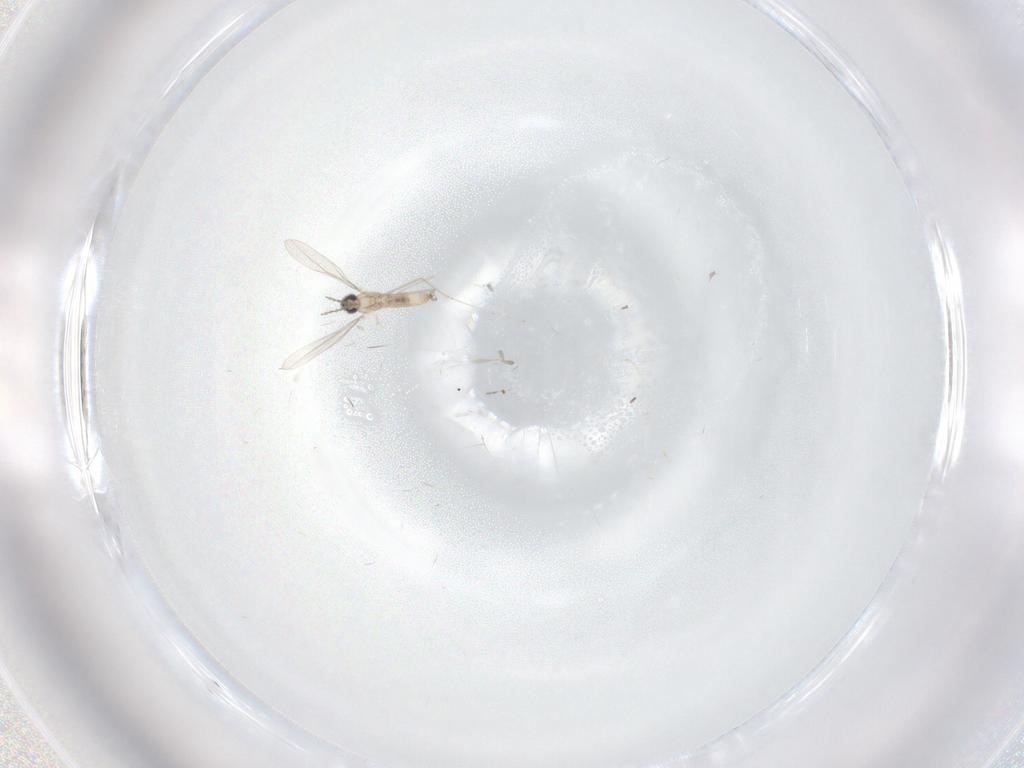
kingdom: Animalia
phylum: Arthropoda
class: Insecta
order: Diptera
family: Cecidomyiidae
